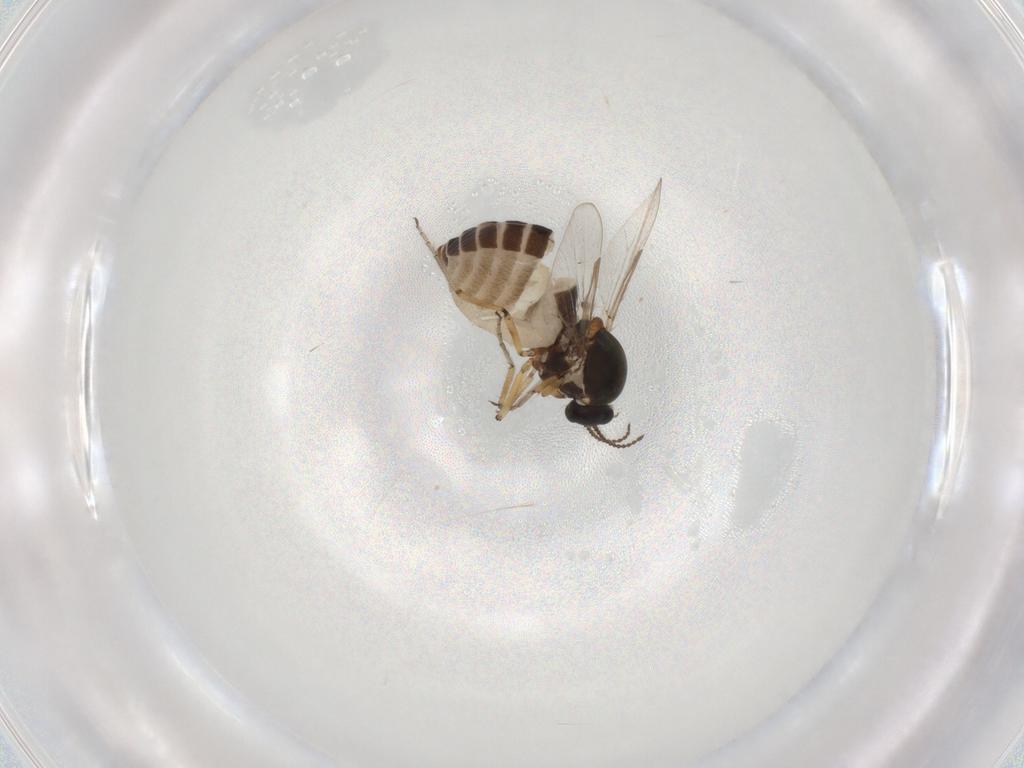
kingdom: Animalia
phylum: Arthropoda
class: Insecta
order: Diptera
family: Ceratopogonidae
